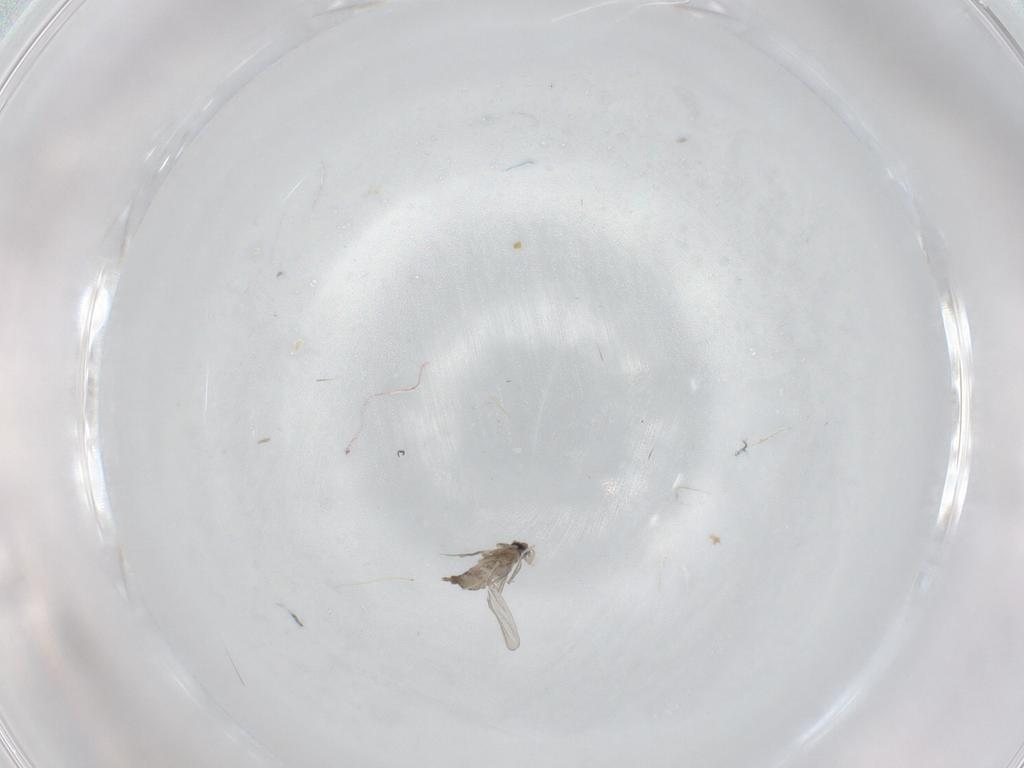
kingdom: Animalia
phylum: Arthropoda
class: Insecta
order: Diptera
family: Cecidomyiidae
